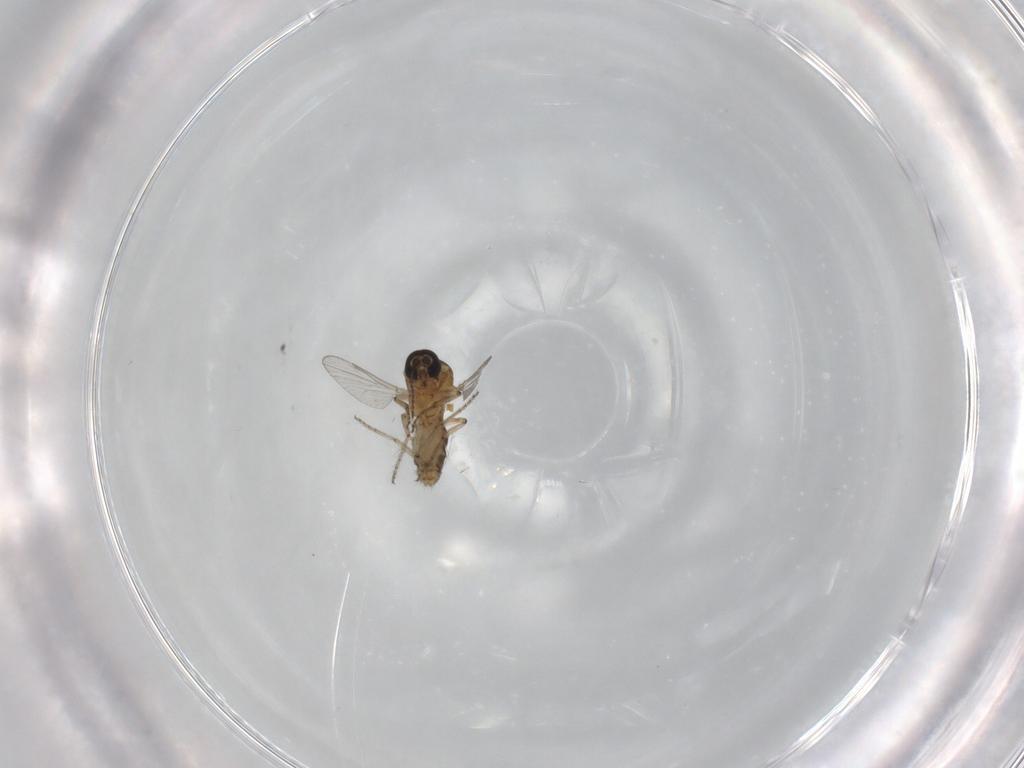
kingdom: Animalia
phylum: Arthropoda
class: Insecta
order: Diptera
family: Ceratopogonidae
